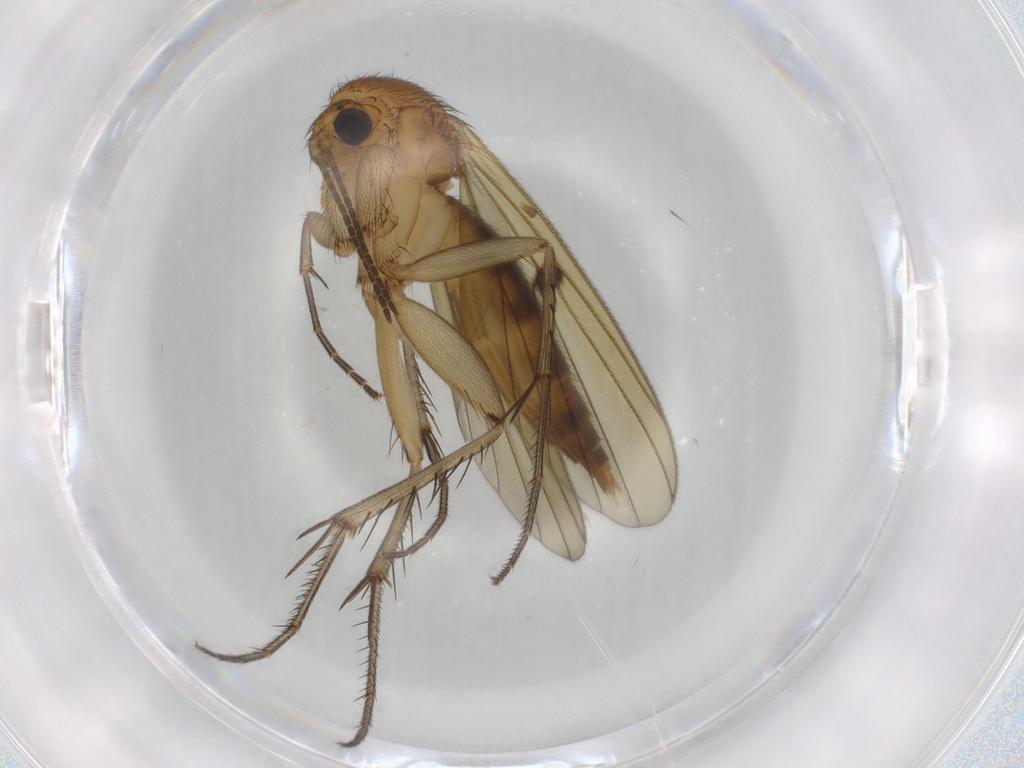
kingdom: Animalia
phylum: Arthropoda
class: Insecta
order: Diptera
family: Mycetophilidae
